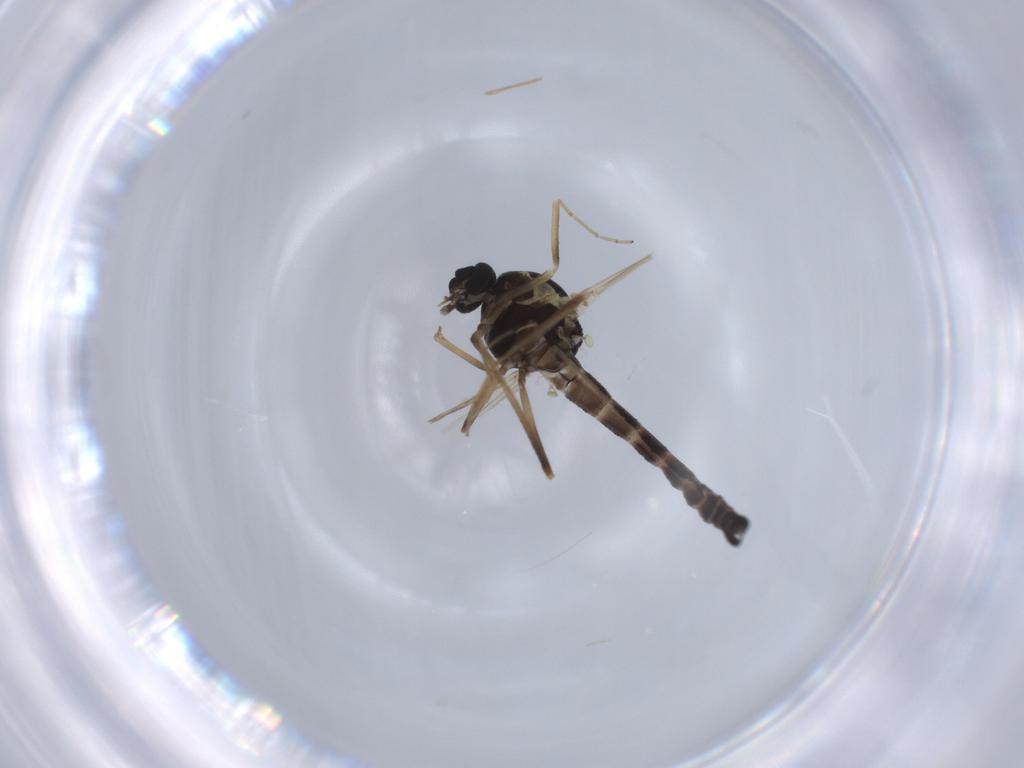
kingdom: Animalia
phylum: Arthropoda
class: Insecta
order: Diptera
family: Ceratopogonidae
